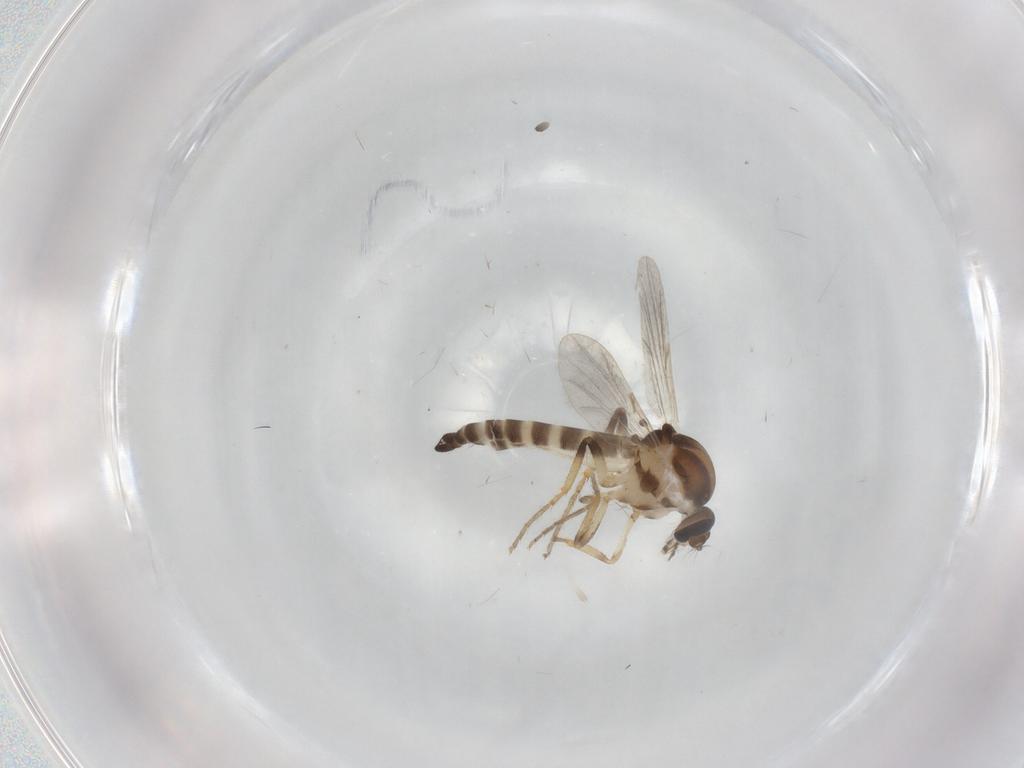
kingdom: Animalia
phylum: Arthropoda
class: Insecta
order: Diptera
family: Ceratopogonidae
